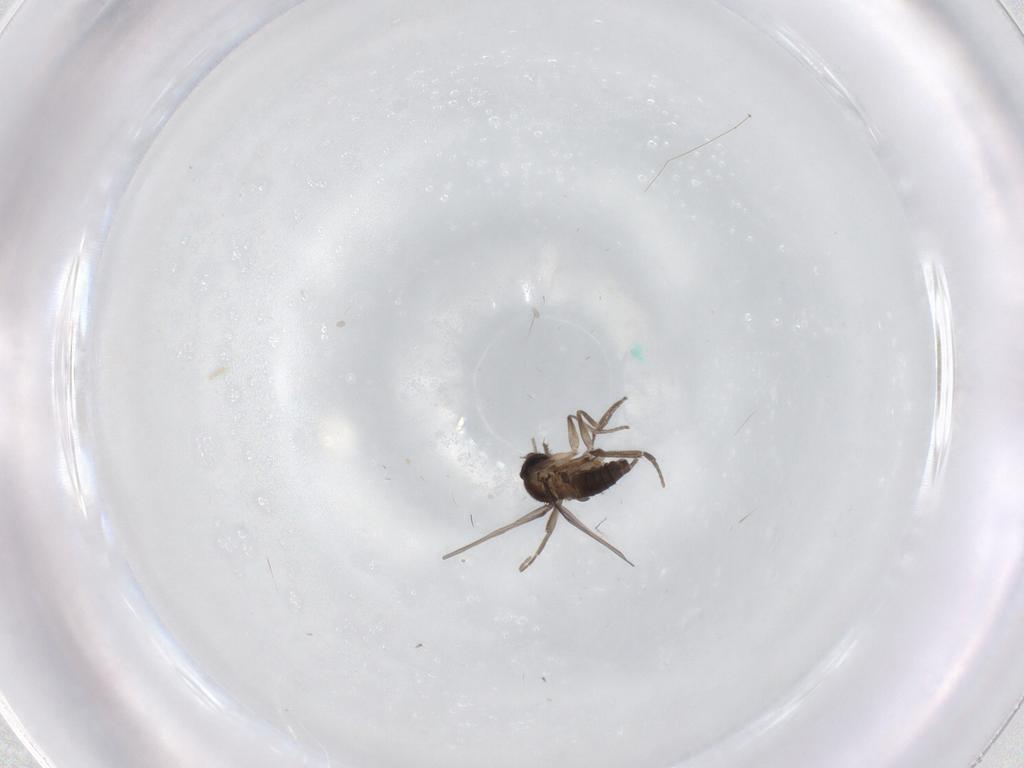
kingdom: Animalia
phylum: Arthropoda
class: Insecta
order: Diptera
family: Phoridae
